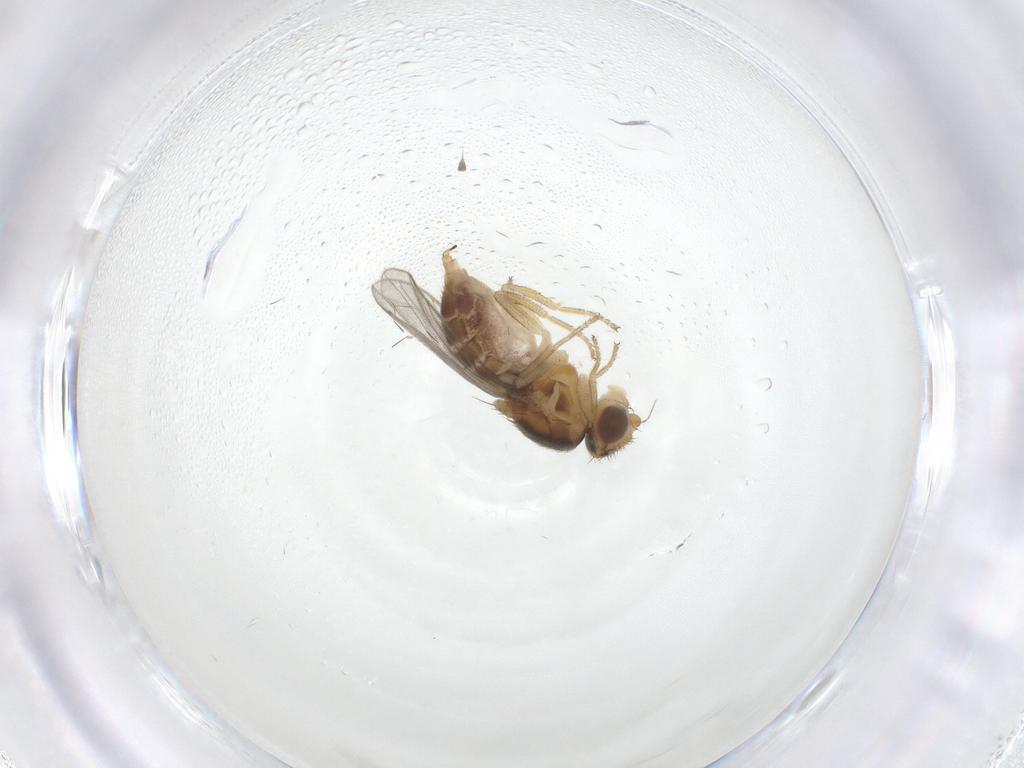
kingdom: Animalia
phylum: Arthropoda
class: Insecta
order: Diptera
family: Chloropidae
